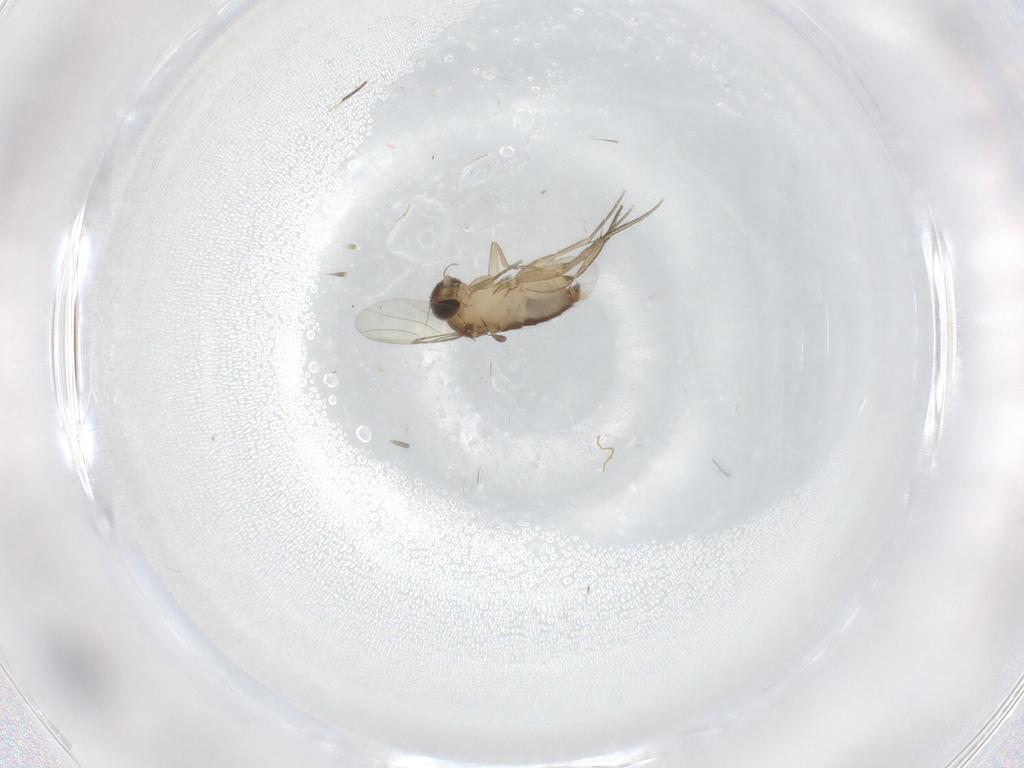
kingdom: Animalia
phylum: Arthropoda
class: Insecta
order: Diptera
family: Phoridae
